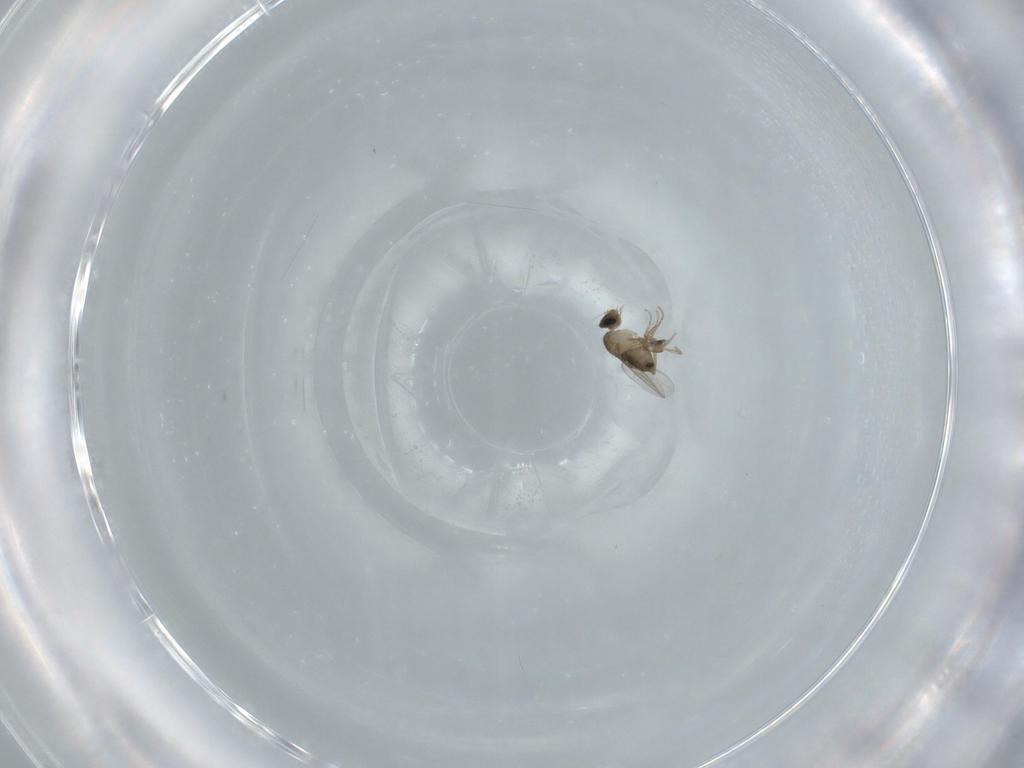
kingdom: Animalia
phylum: Arthropoda
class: Insecta
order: Diptera
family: Phoridae
